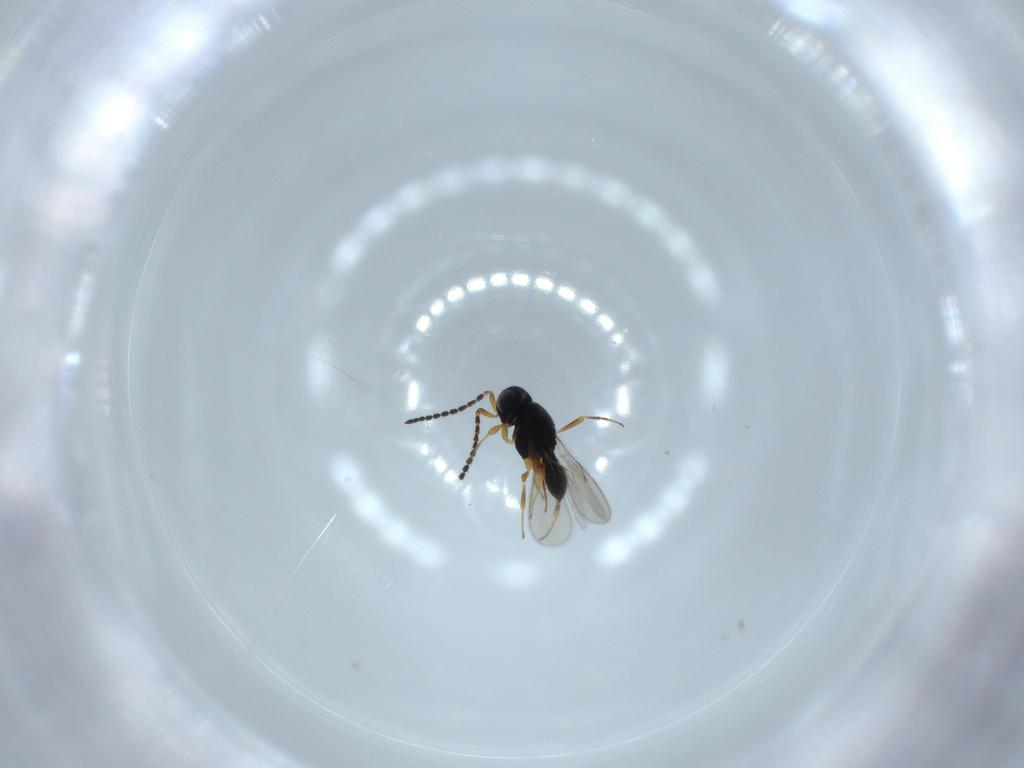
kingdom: Animalia
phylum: Arthropoda
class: Insecta
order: Hymenoptera
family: Scelionidae
